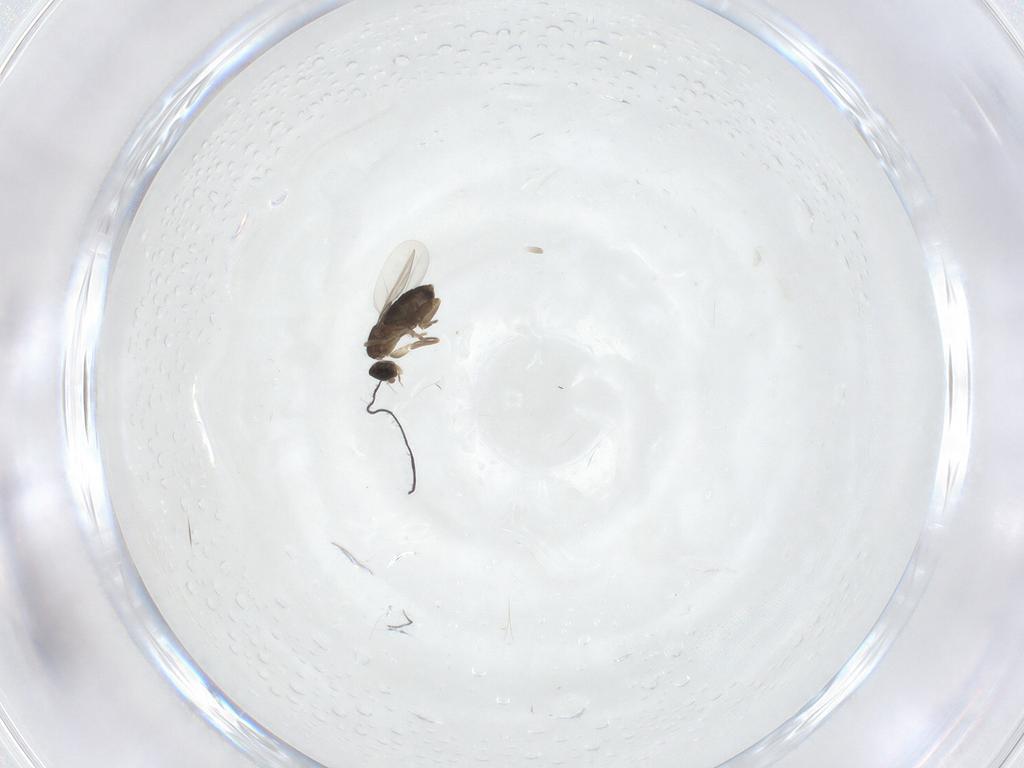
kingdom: Animalia
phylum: Arthropoda
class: Insecta
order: Diptera
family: Phoridae
